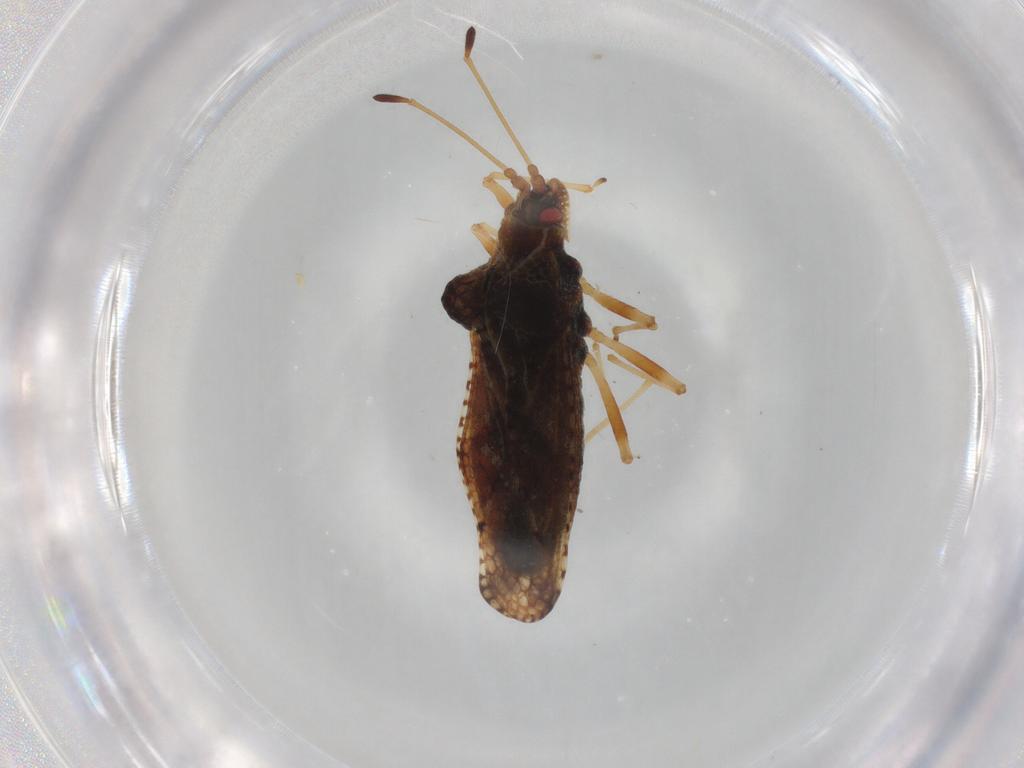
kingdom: Animalia
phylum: Arthropoda
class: Insecta
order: Hemiptera
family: Tingidae
